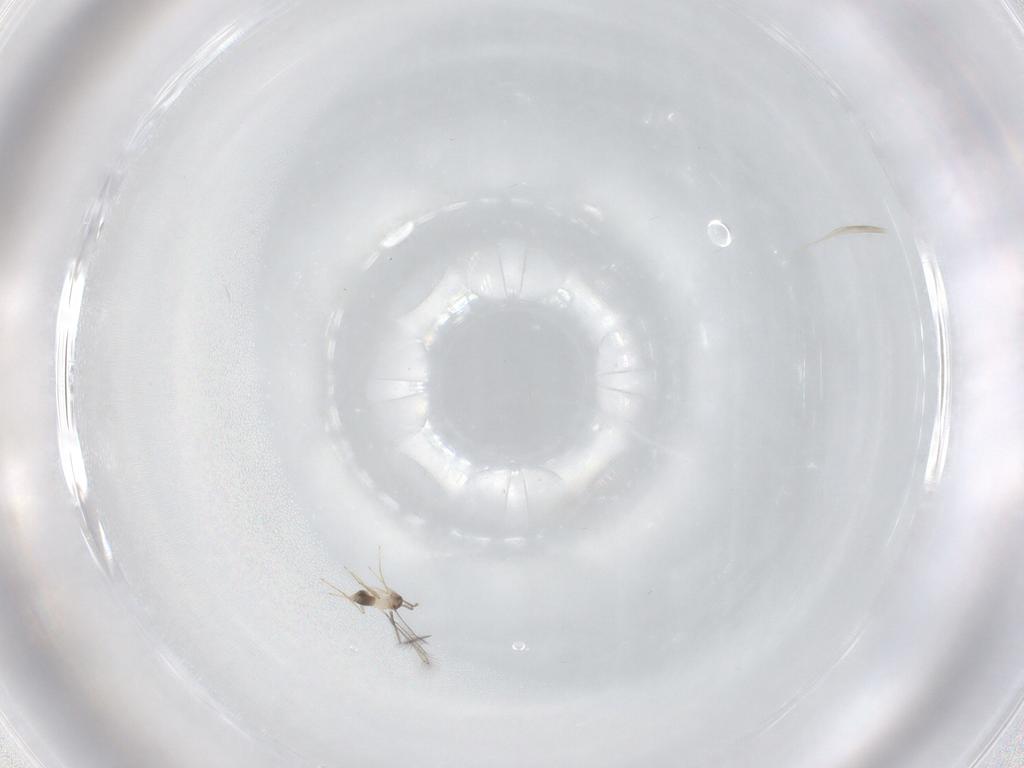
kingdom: Animalia
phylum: Arthropoda
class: Insecta
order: Hymenoptera
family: Mymaridae
